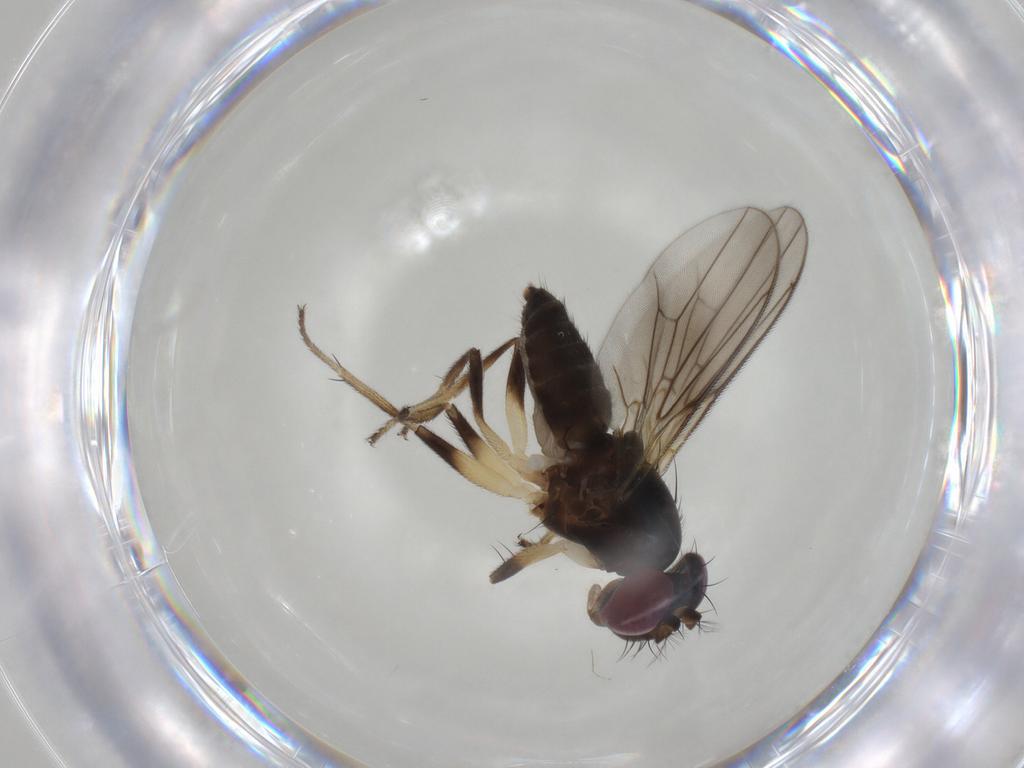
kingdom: Animalia
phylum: Arthropoda
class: Insecta
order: Diptera
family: Periscelididae
